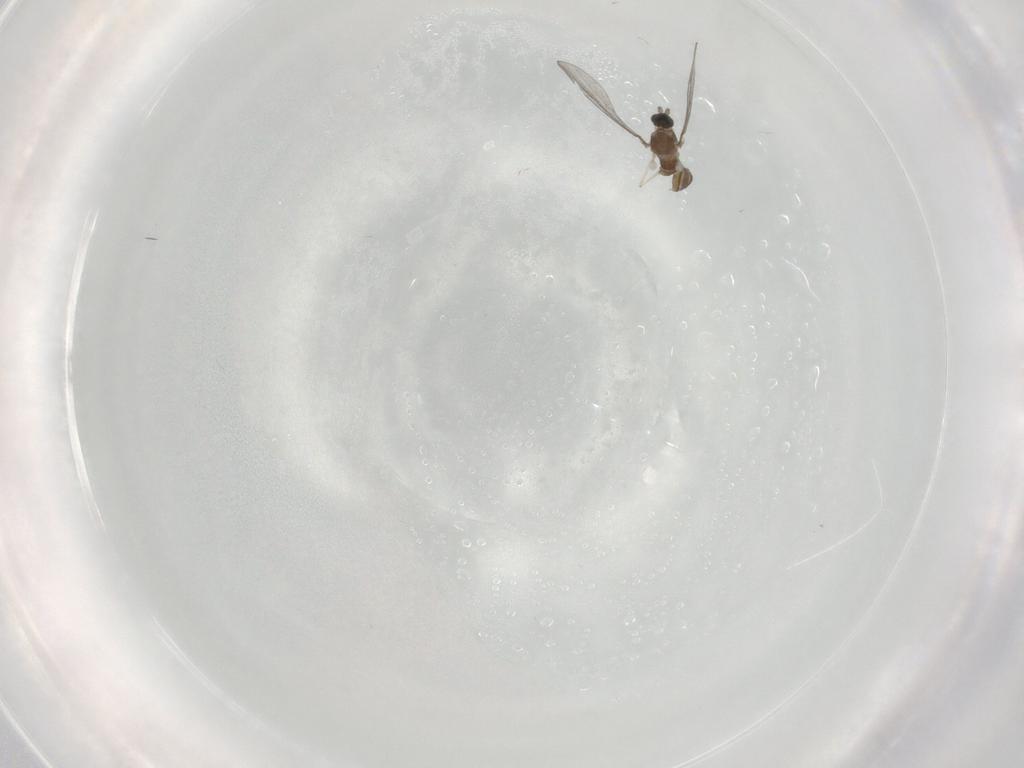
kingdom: Animalia
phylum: Arthropoda
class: Insecta
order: Diptera
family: Cecidomyiidae
